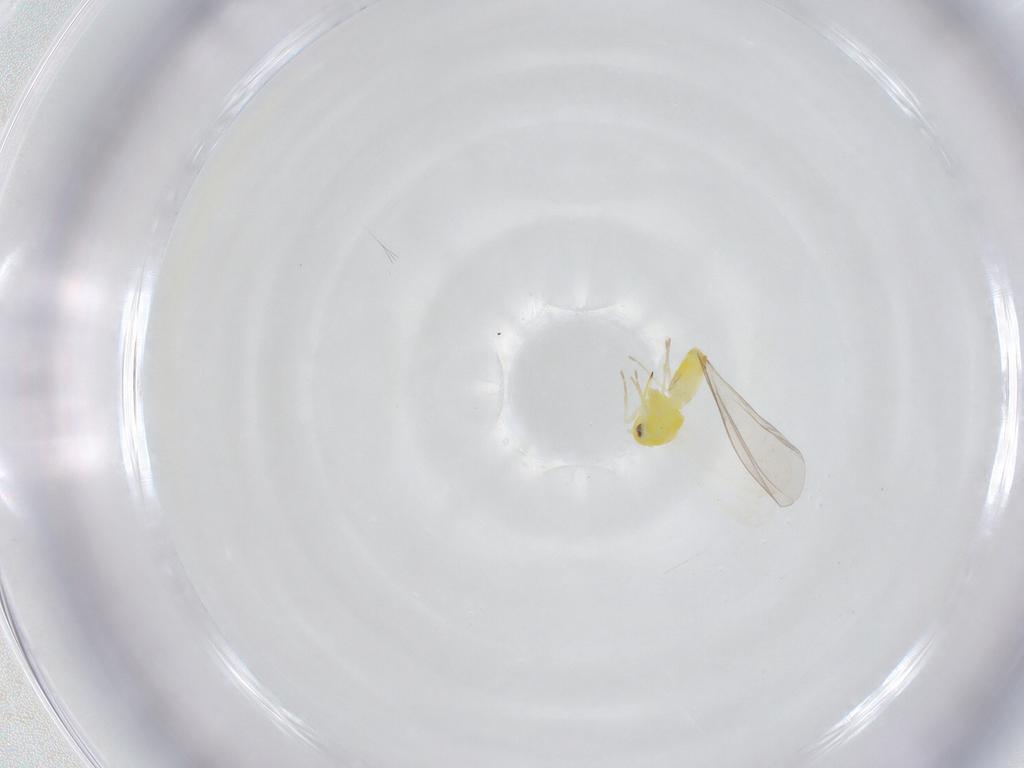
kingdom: Animalia
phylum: Arthropoda
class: Insecta
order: Hemiptera
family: Aleyrodidae
